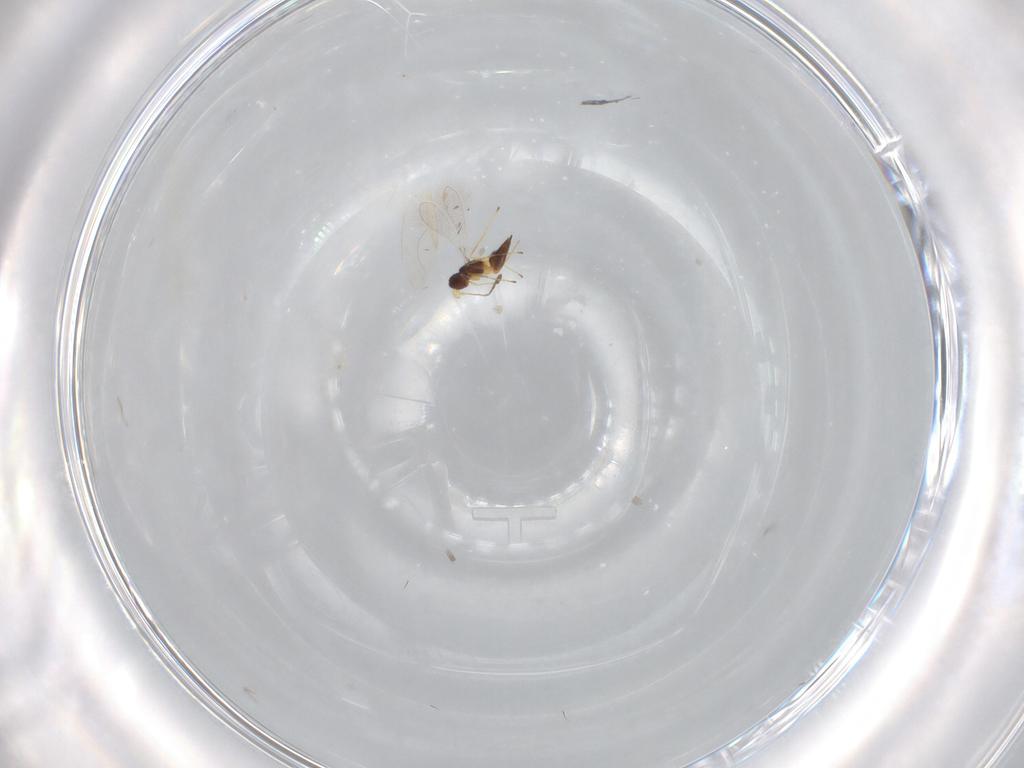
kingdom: Animalia
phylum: Arthropoda
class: Insecta
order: Hymenoptera
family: Mymaridae
